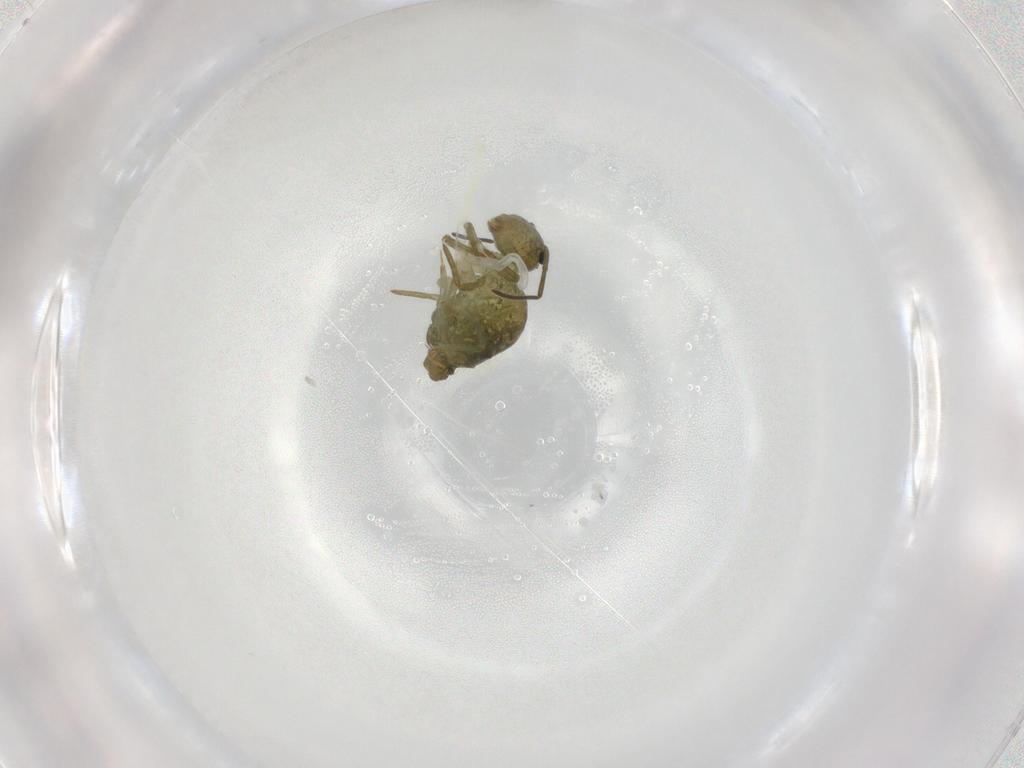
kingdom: Animalia
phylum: Arthropoda
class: Collembola
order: Symphypleona
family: Sminthuridae
